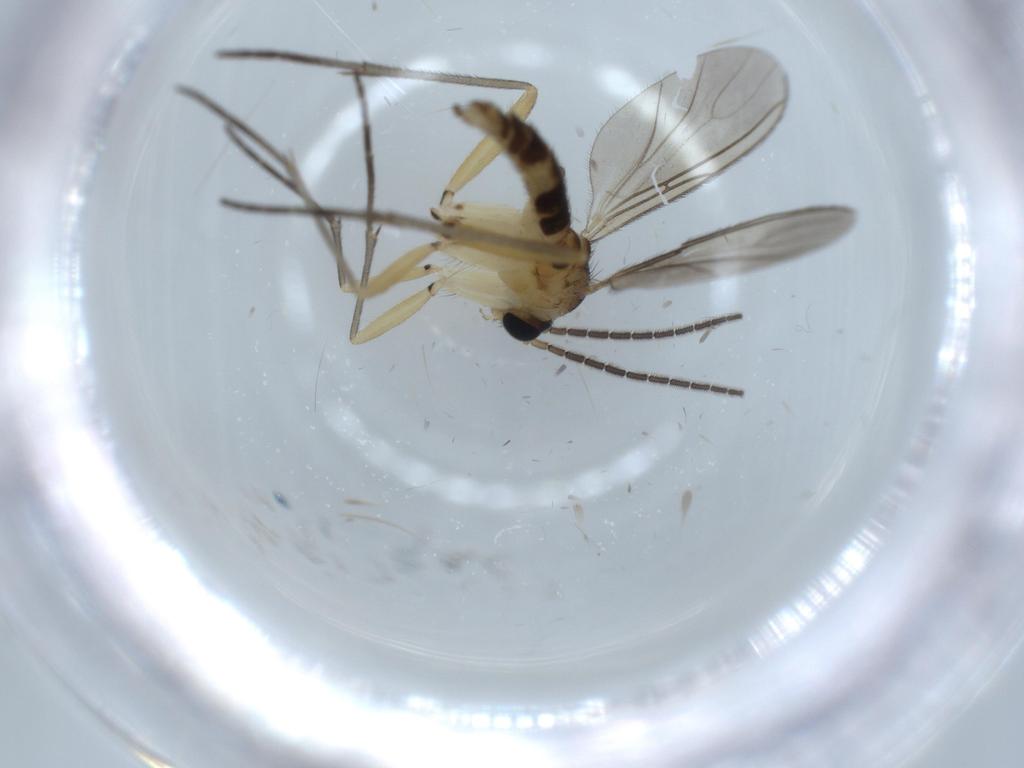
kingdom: Animalia
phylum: Arthropoda
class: Insecta
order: Diptera
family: Sciaridae
